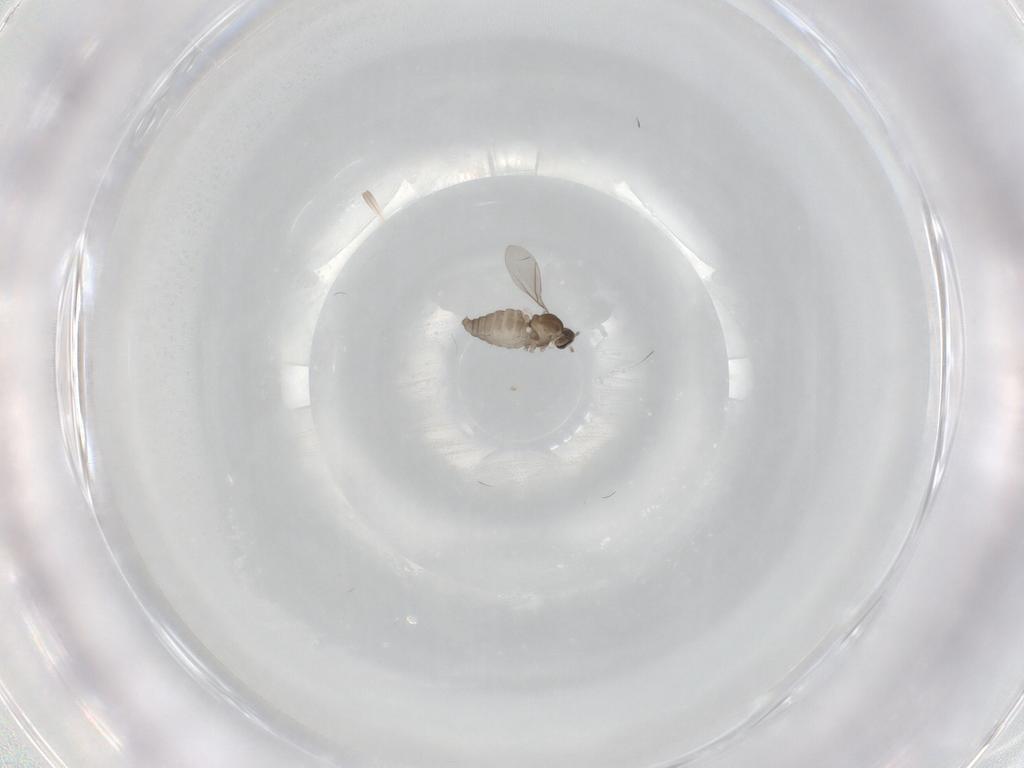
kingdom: Animalia
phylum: Arthropoda
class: Insecta
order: Diptera
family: Cecidomyiidae
